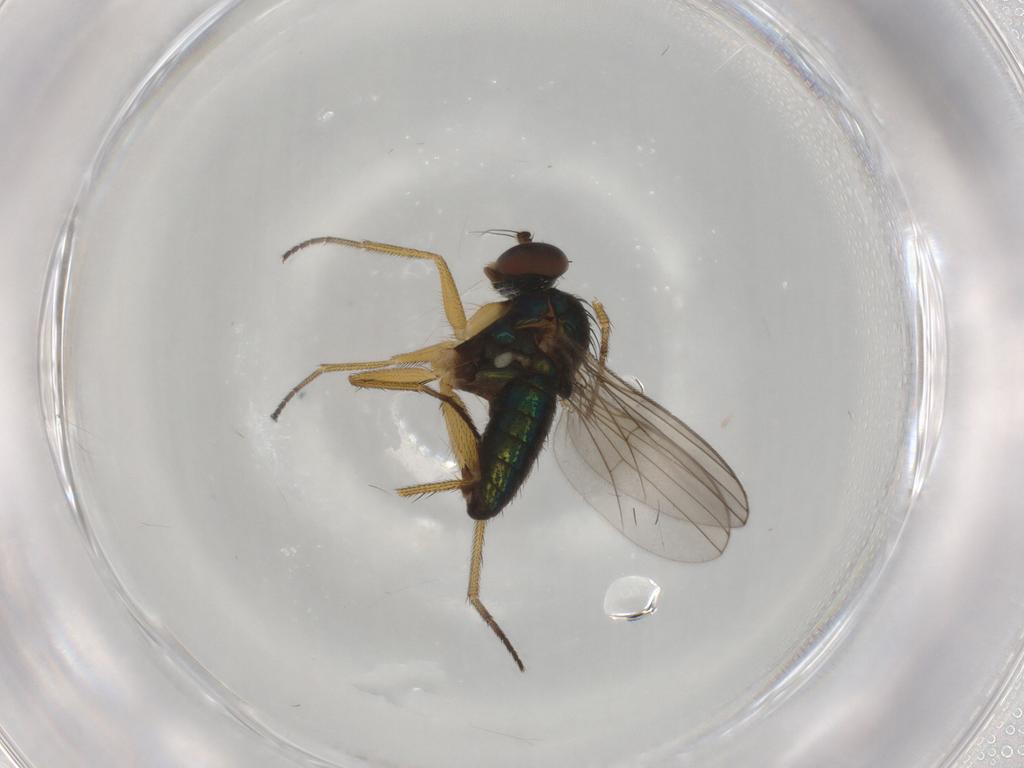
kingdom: Animalia
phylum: Arthropoda
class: Insecta
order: Diptera
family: Dolichopodidae
